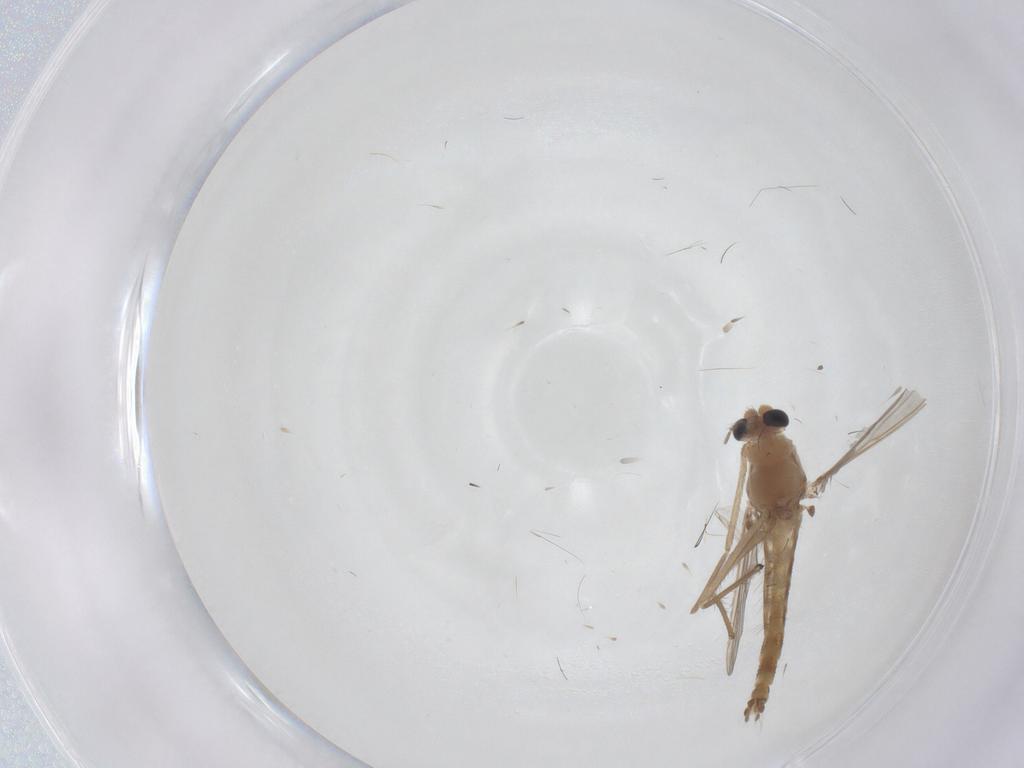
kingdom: Animalia
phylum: Arthropoda
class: Insecta
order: Diptera
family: Chironomidae
